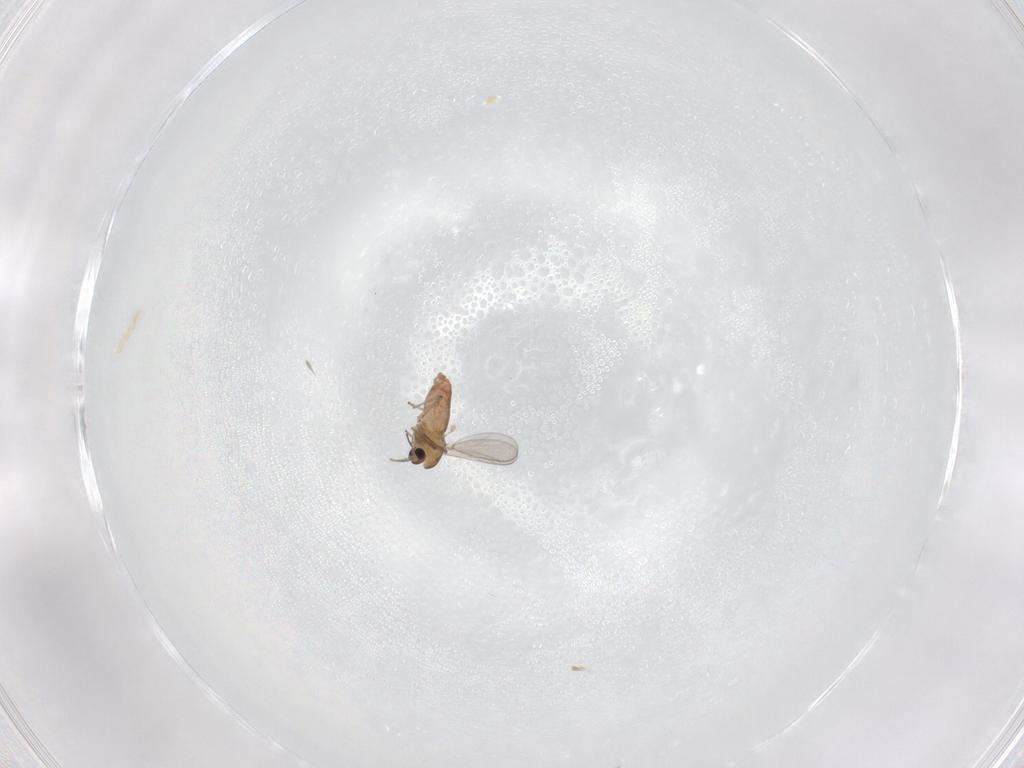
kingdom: Animalia
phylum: Arthropoda
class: Insecta
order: Diptera
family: Chironomidae
